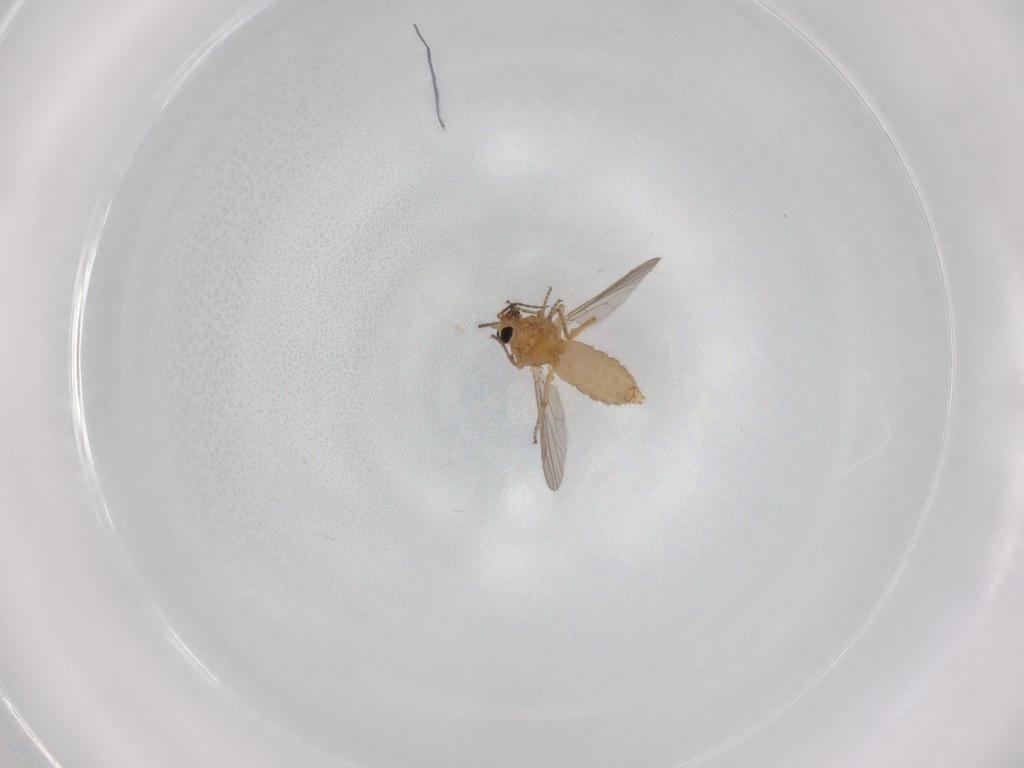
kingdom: Animalia
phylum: Arthropoda
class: Insecta
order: Diptera
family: Ceratopogonidae
